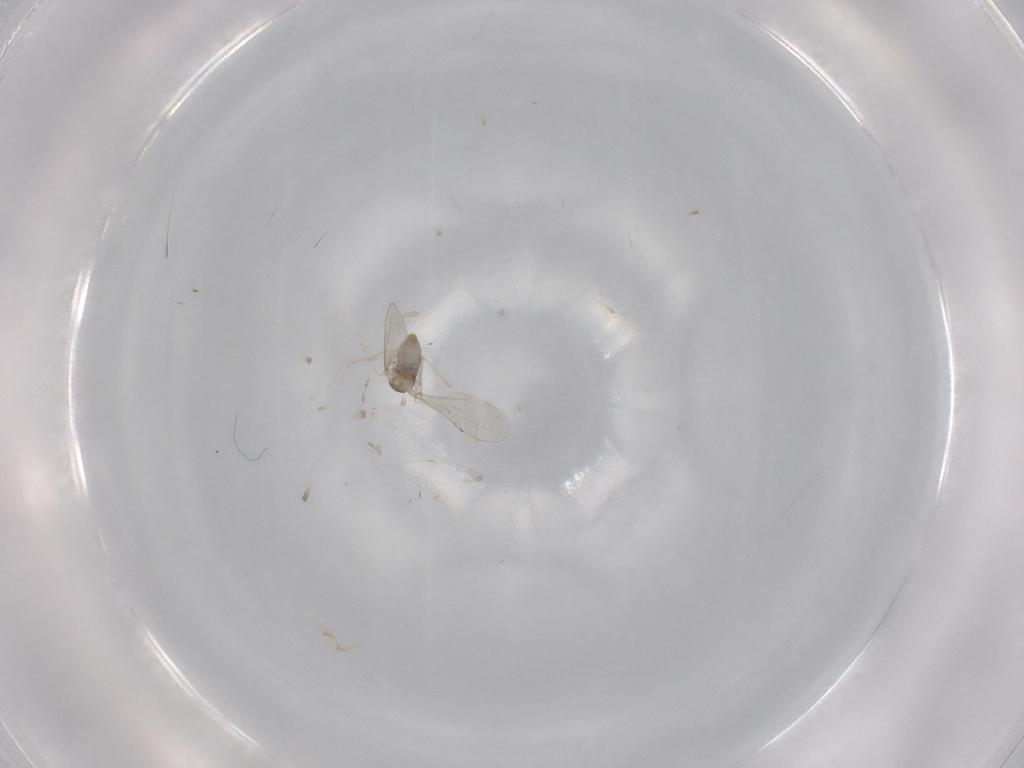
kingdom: Animalia
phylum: Arthropoda
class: Insecta
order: Diptera
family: Cecidomyiidae
